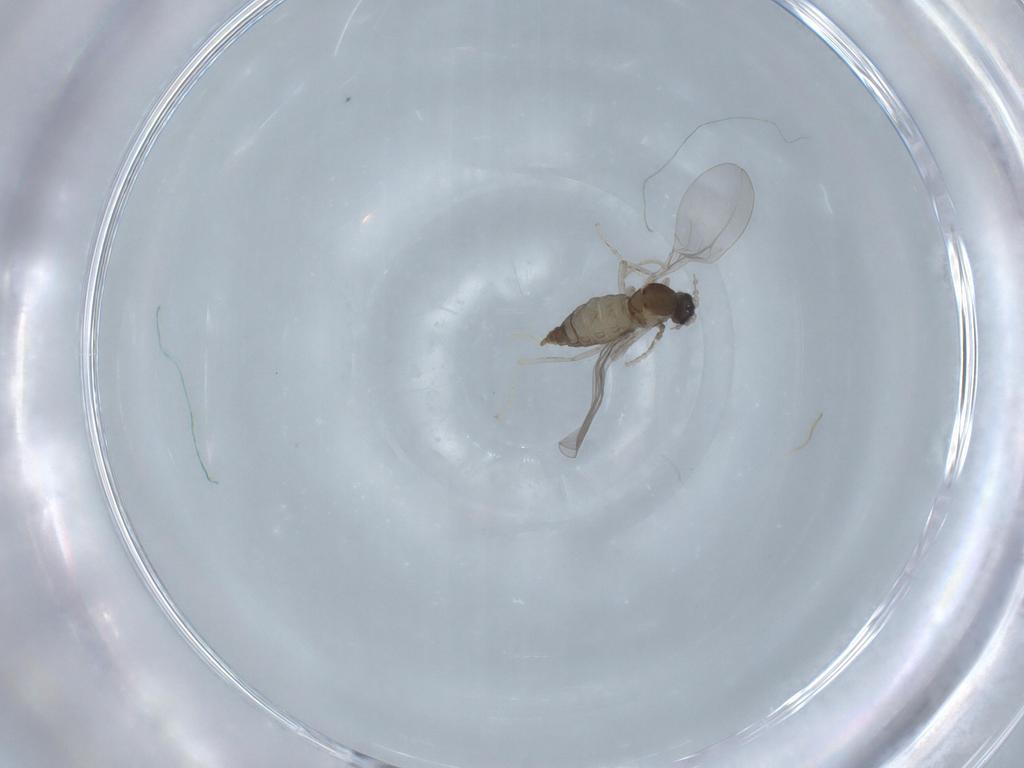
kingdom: Animalia
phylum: Arthropoda
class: Insecta
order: Diptera
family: Cecidomyiidae
